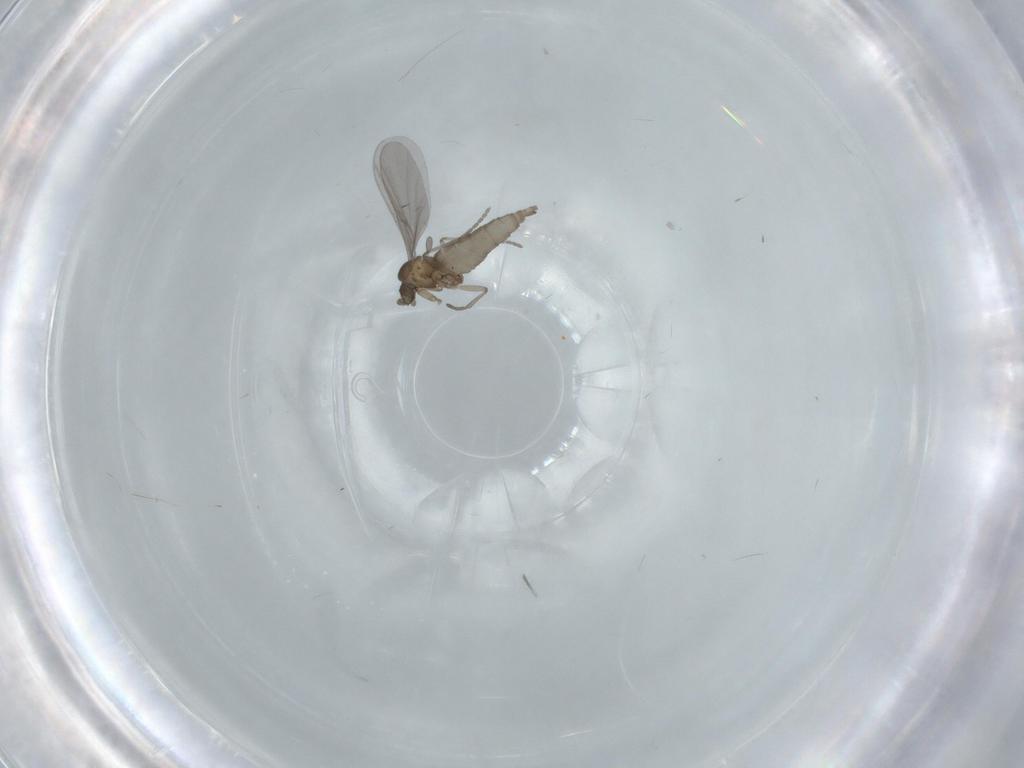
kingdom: Animalia
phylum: Arthropoda
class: Insecta
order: Diptera
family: Sciaridae
